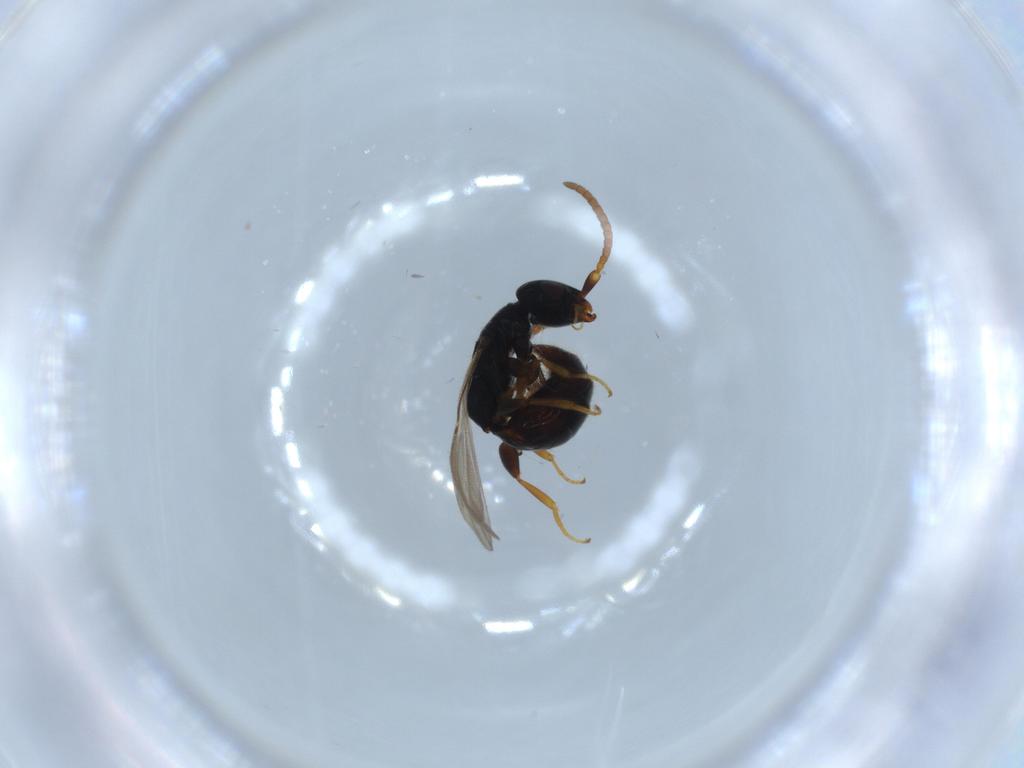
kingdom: Animalia
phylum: Arthropoda
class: Insecta
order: Hymenoptera
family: Bethylidae
